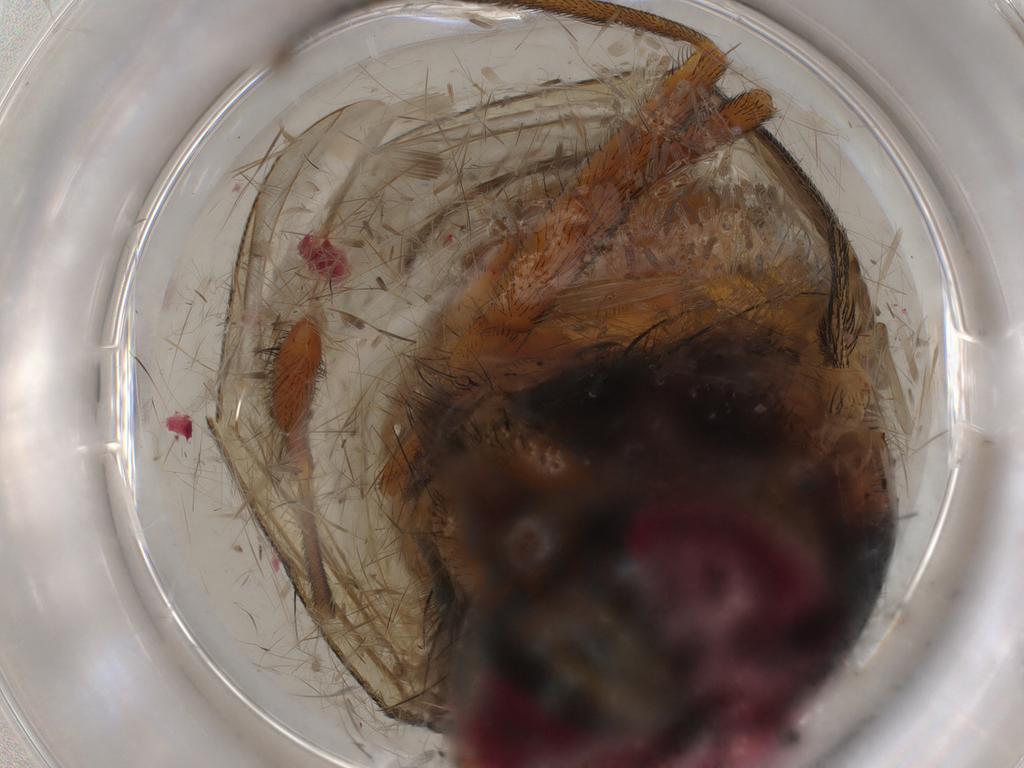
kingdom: Animalia
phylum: Arthropoda
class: Insecta
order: Diptera
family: Muscidae
